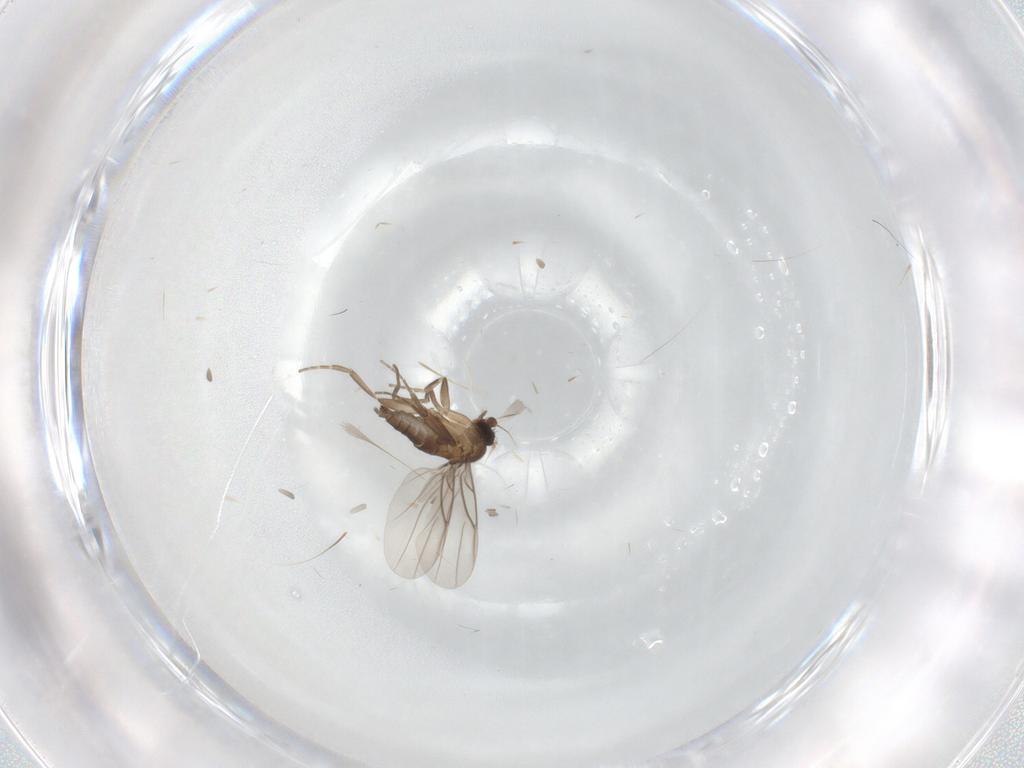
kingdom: Animalia
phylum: Arthropoda
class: Insecta
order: Diptera
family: Phoridae
